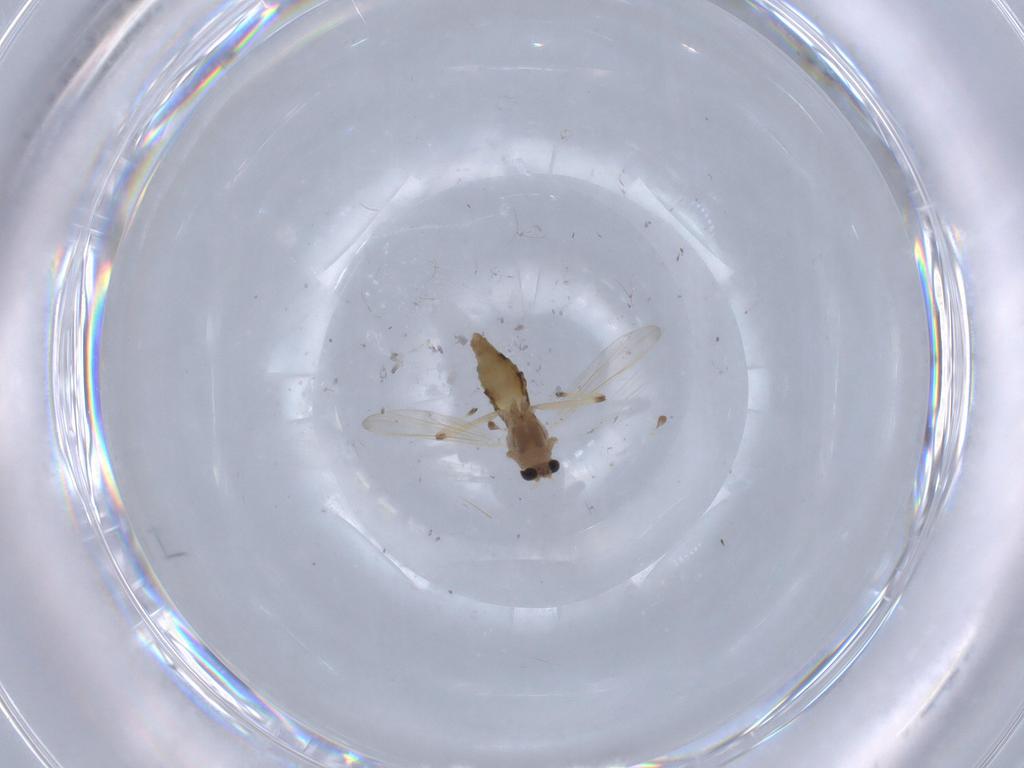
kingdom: Animalia
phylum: Arthropoda
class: Insecta
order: Diptera
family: Chironomidae
